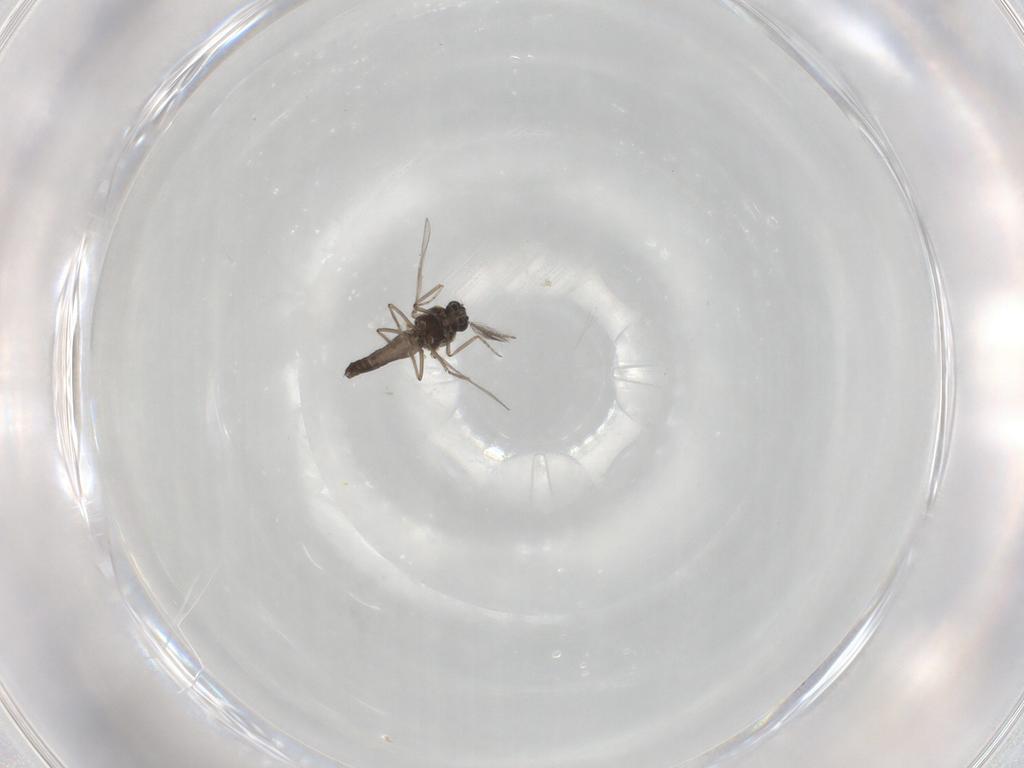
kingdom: Animalia
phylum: Arthropoda
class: Insecta
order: Diptera
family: Ceratopogonidae
